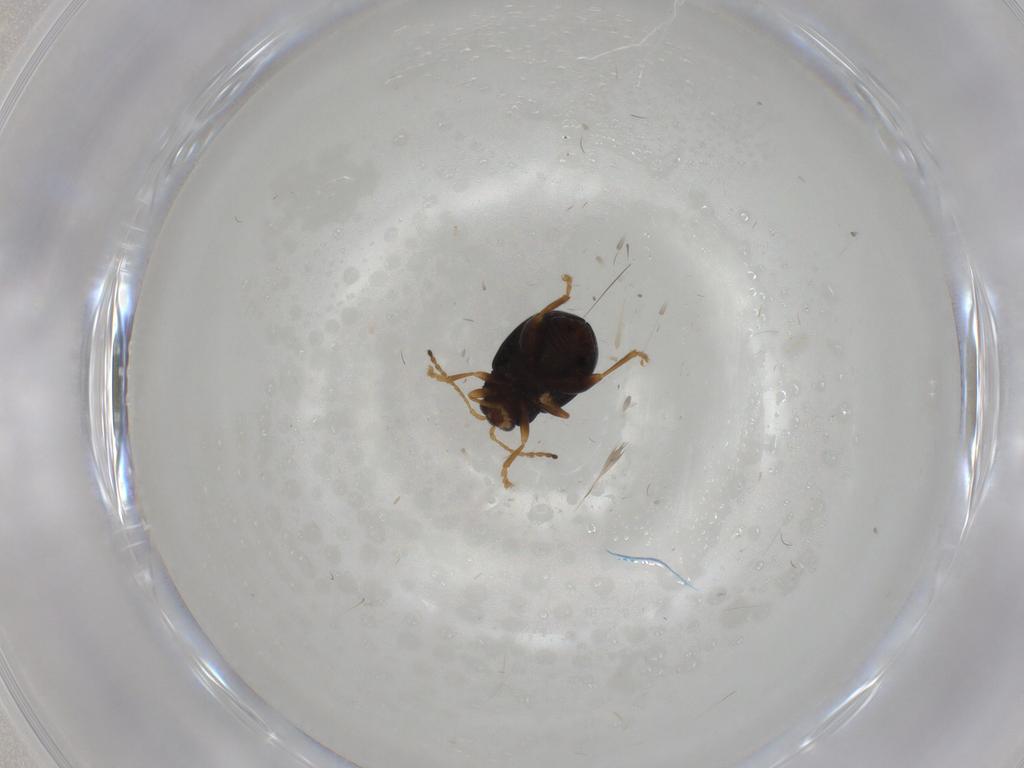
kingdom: Animalia
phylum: Arthropoda
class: Insecta
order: Coleoptera
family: Chrysomelidae
